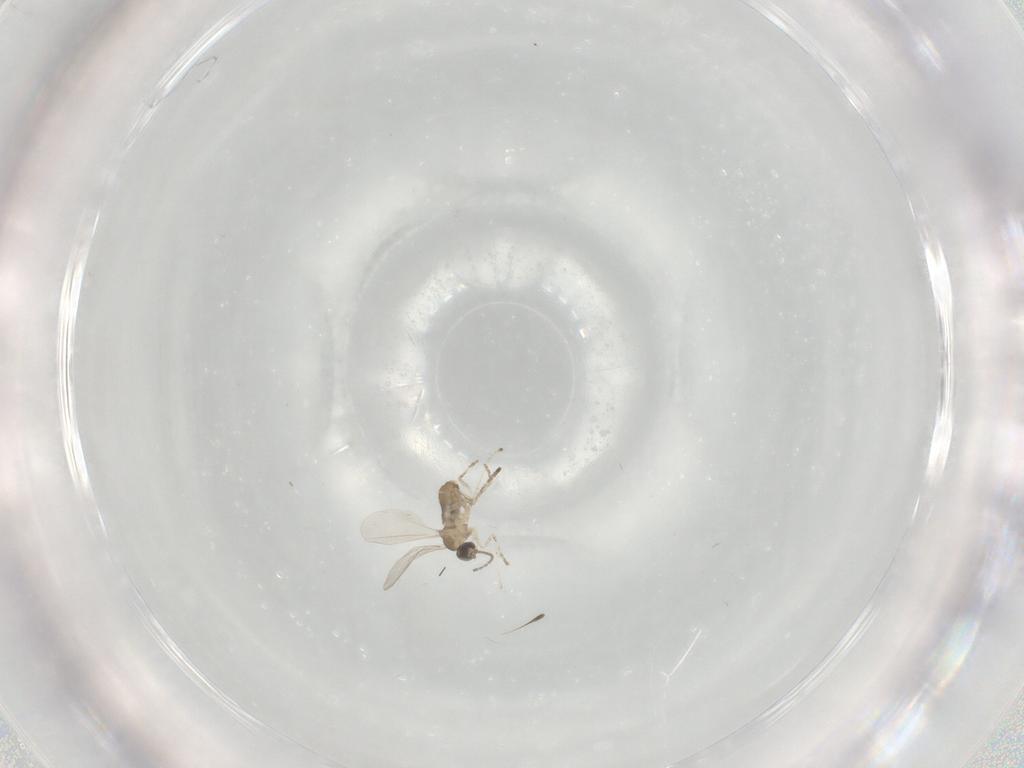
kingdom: Animalia
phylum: Arthropoda
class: Insecta
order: Diptera
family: Cecidomyiidae
